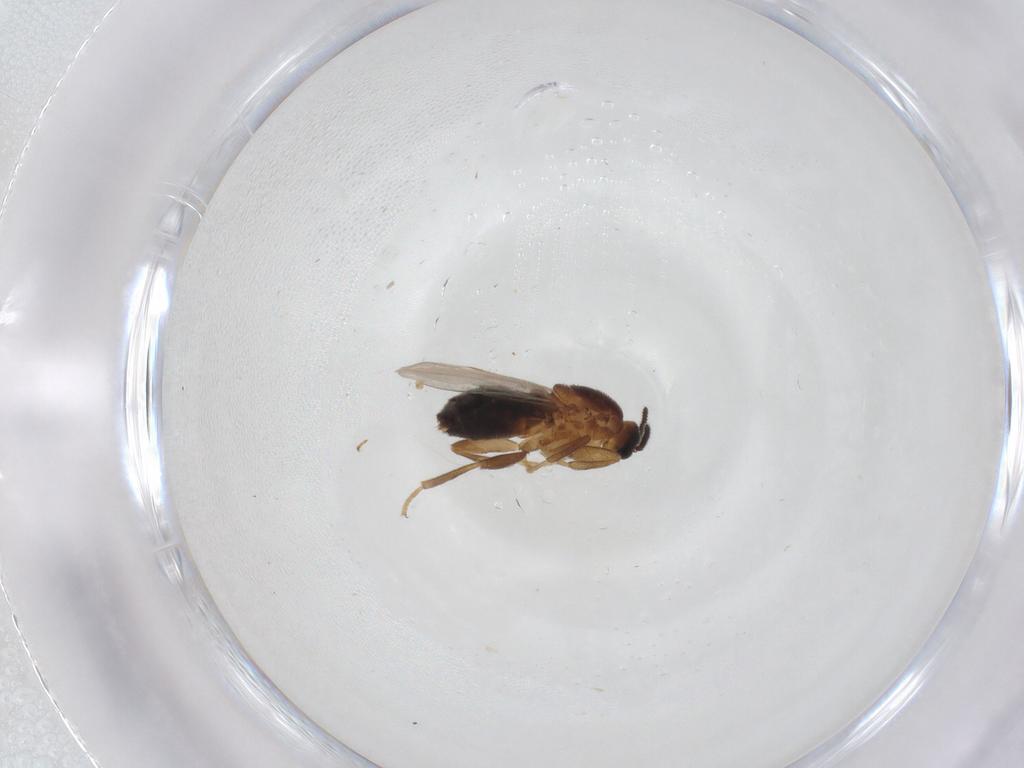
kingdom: Animalia
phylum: Arthropoda
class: Insecta
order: Diptera
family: Scatopsidae
